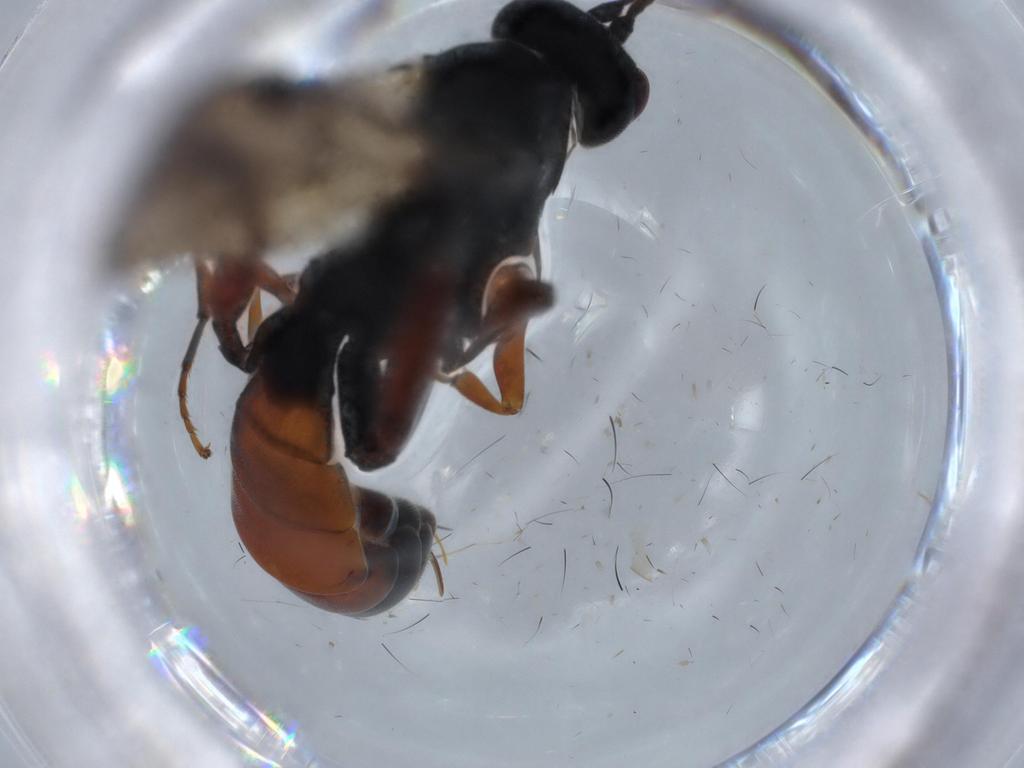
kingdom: Animalia
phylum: Arthropoda
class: Insecta
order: Hymenoptera
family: Ichneumonidae
